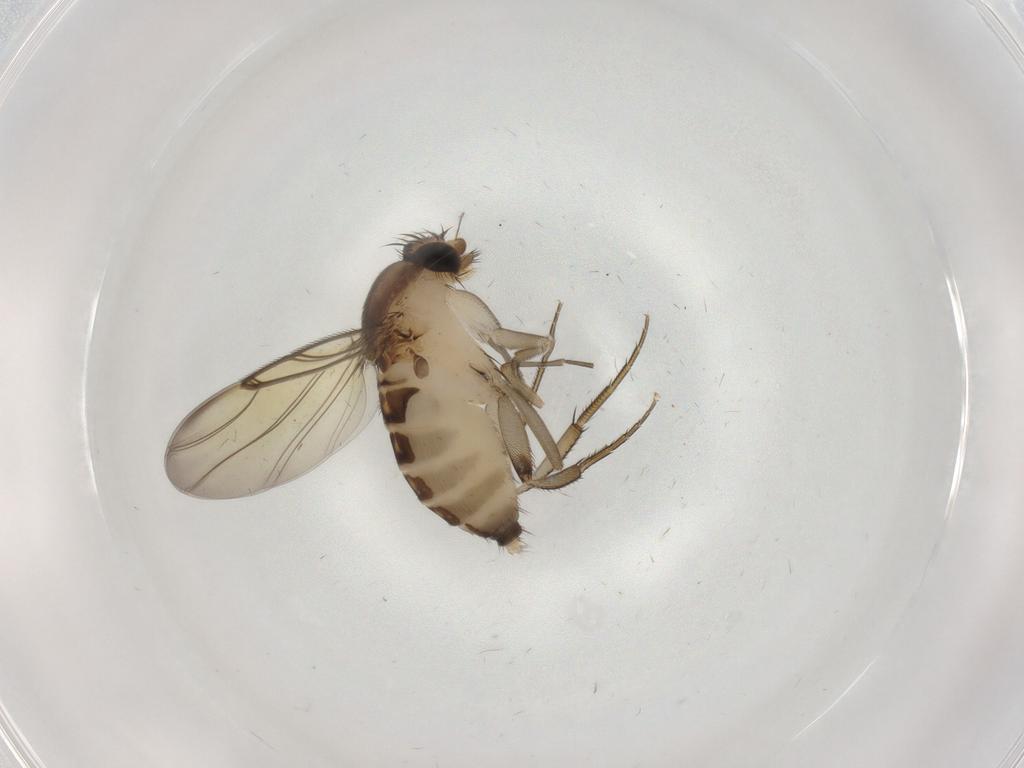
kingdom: Animalia
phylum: Arthropoda
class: Insecta
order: Diptera
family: Phoridae
